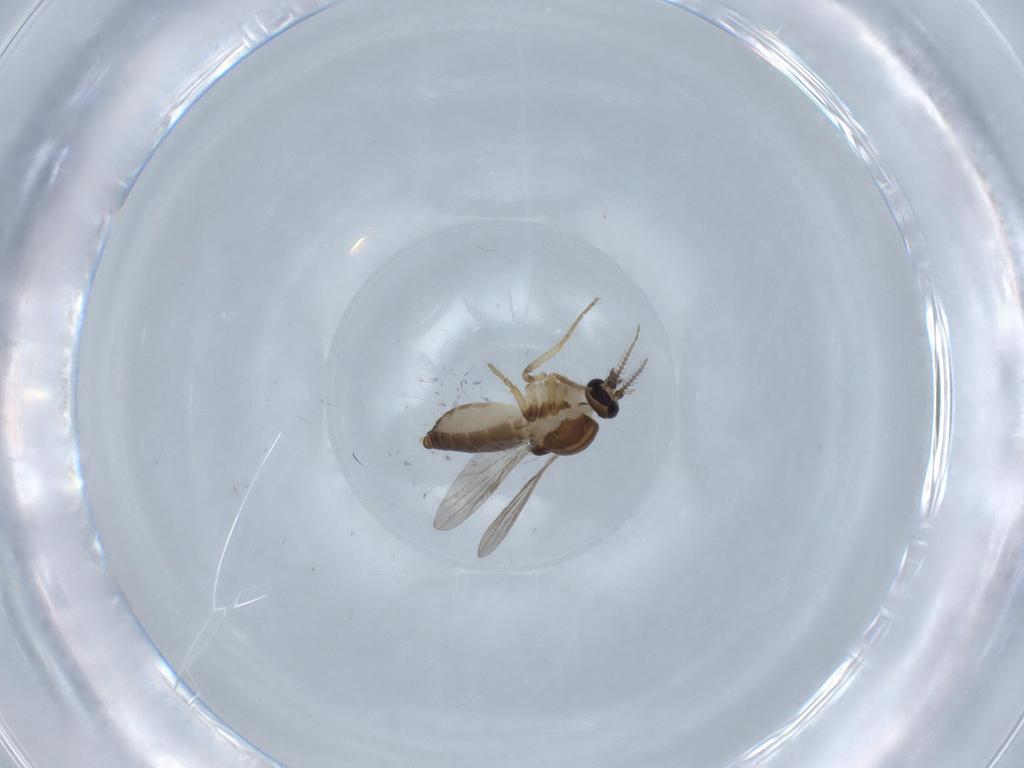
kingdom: Animalia
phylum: Arthropoda
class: Insecta
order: Diptera
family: Ceratopogonidae
